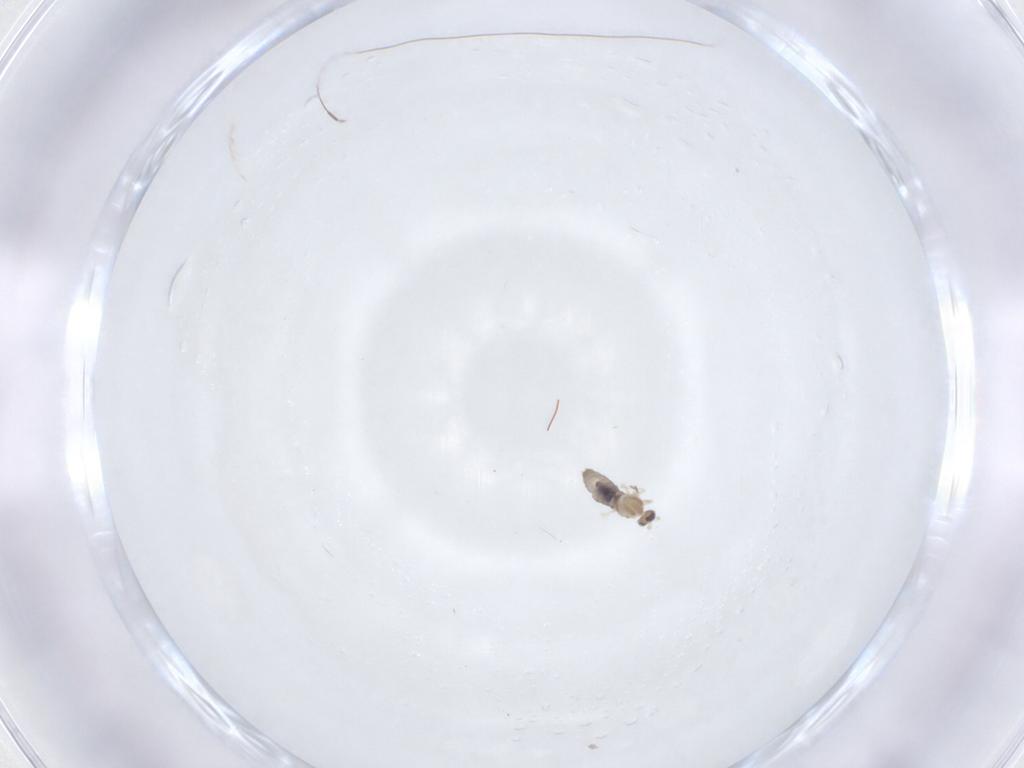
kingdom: Animalia
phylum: Arthropoda
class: Insecta
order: Diptera
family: Cecidomyiidae
